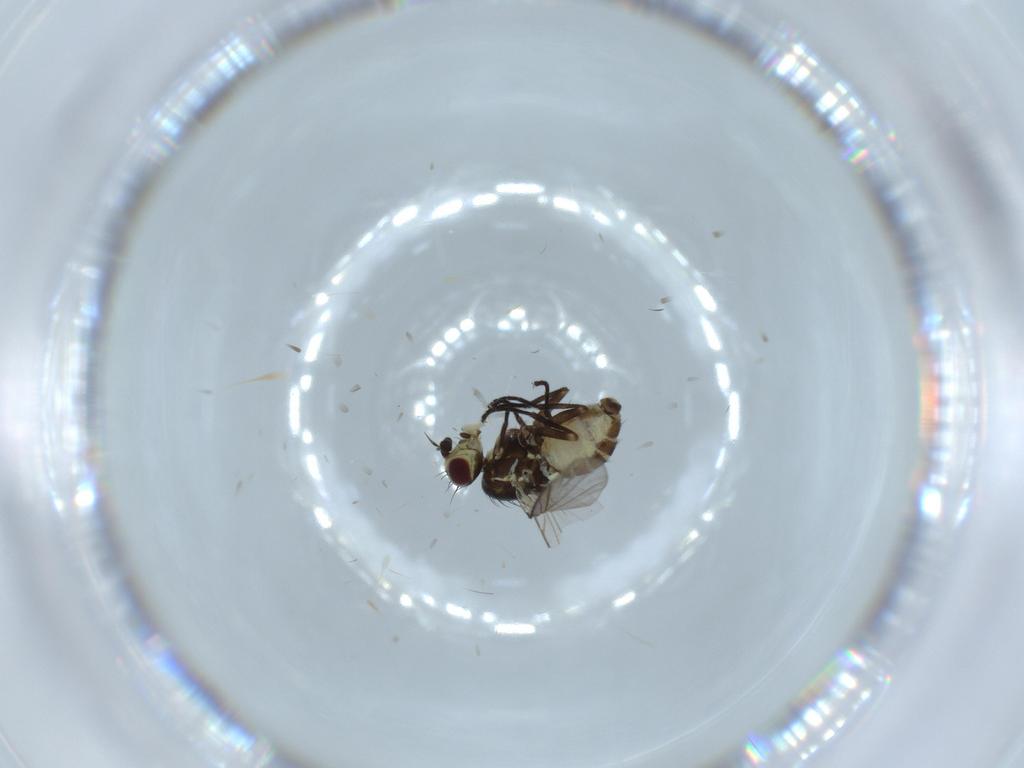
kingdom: Animalia
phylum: Arthropoda
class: Insecta
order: Diptera
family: Agromyzidae
